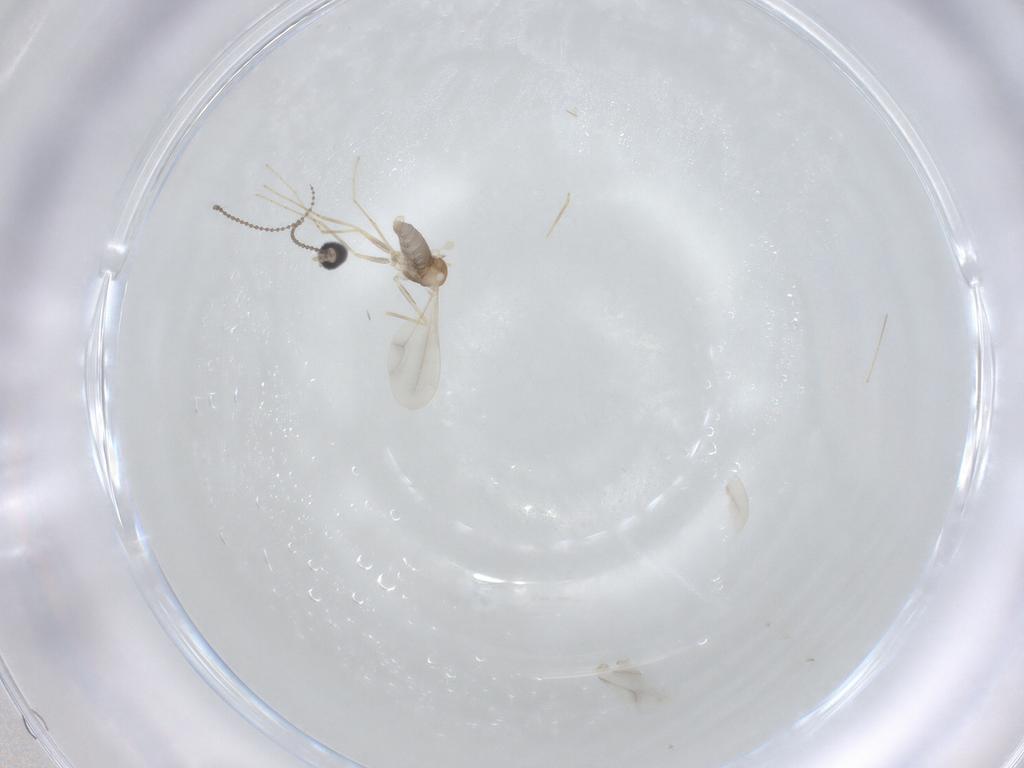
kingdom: Animalia
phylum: Arthropoda
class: Insecta
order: Diptera
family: Cecidomyiidae
